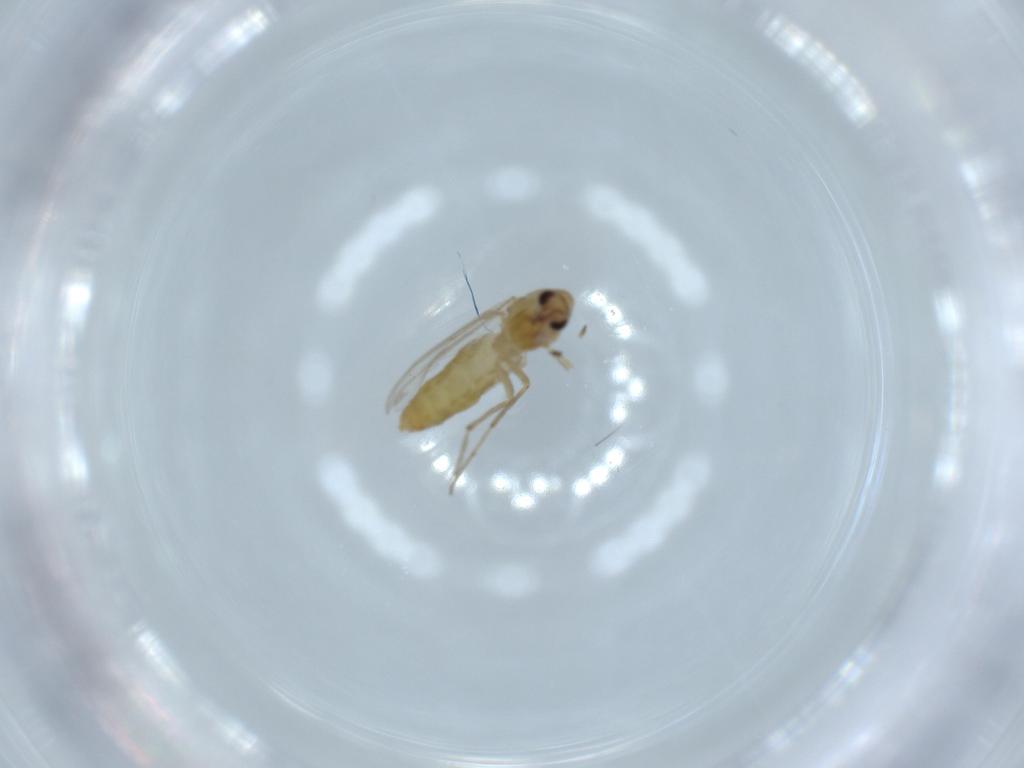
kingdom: Animalia
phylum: Arthropoda
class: Insecta
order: Diptera
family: Chironomidae
